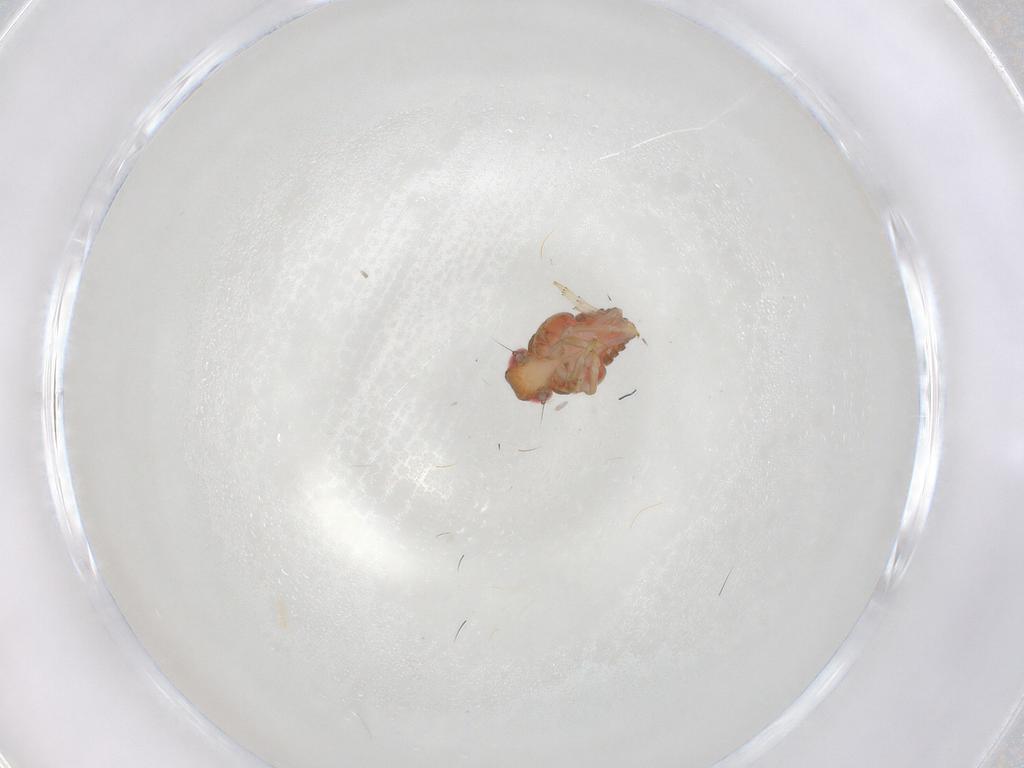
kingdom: Animalia
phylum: Arthropoda
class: Insecta
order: Hemiptera
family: Issidae
